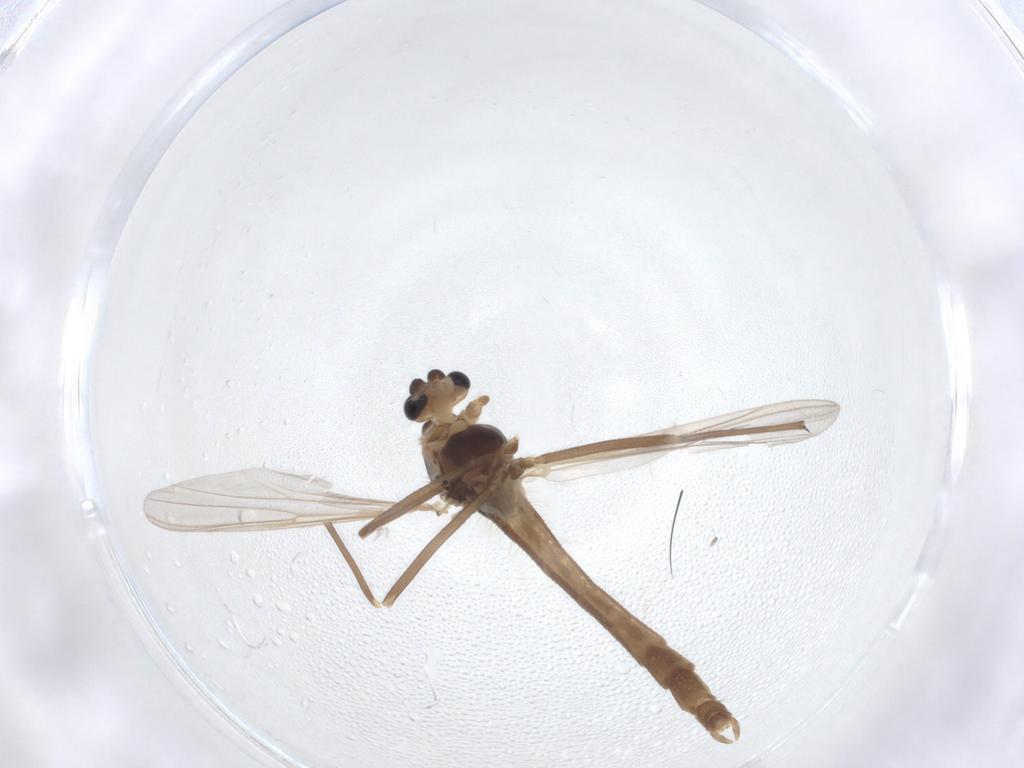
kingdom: Animalia
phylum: Arthropoda
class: Insecta
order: Diptera
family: Chironomidae
